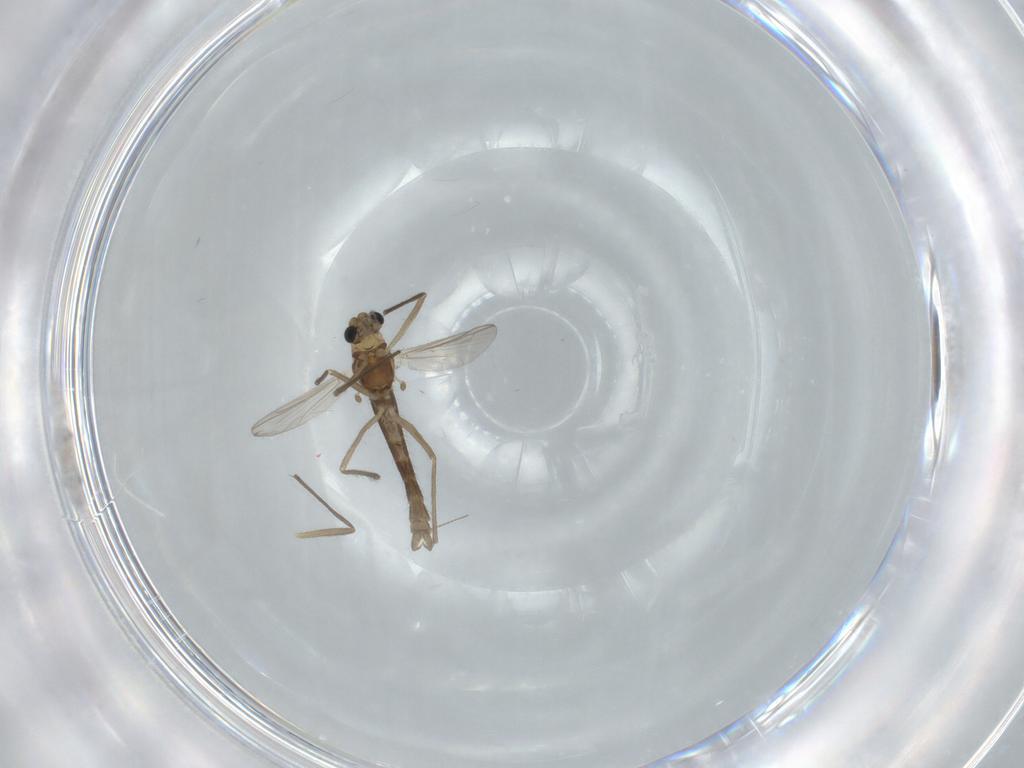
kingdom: Animalia
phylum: Arthropoda
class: Insecta
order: Diptera
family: Chironomidae
